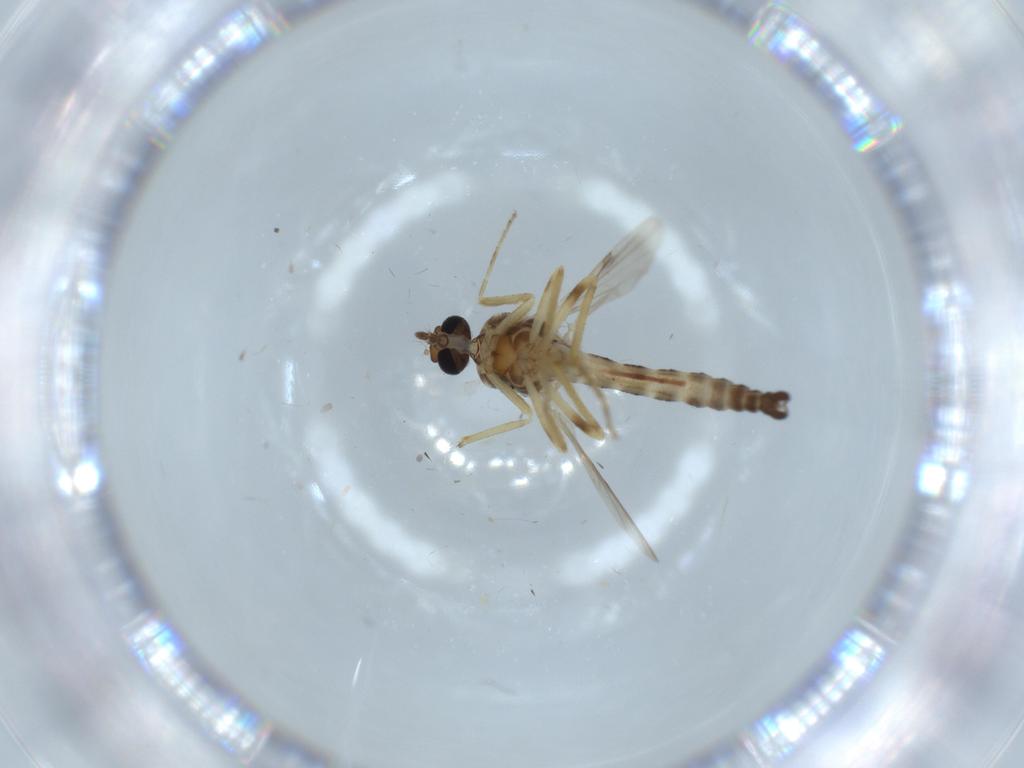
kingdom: Animalia
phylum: Arthropoda
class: Insecta
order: Diptera
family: Ceratopogonidae
